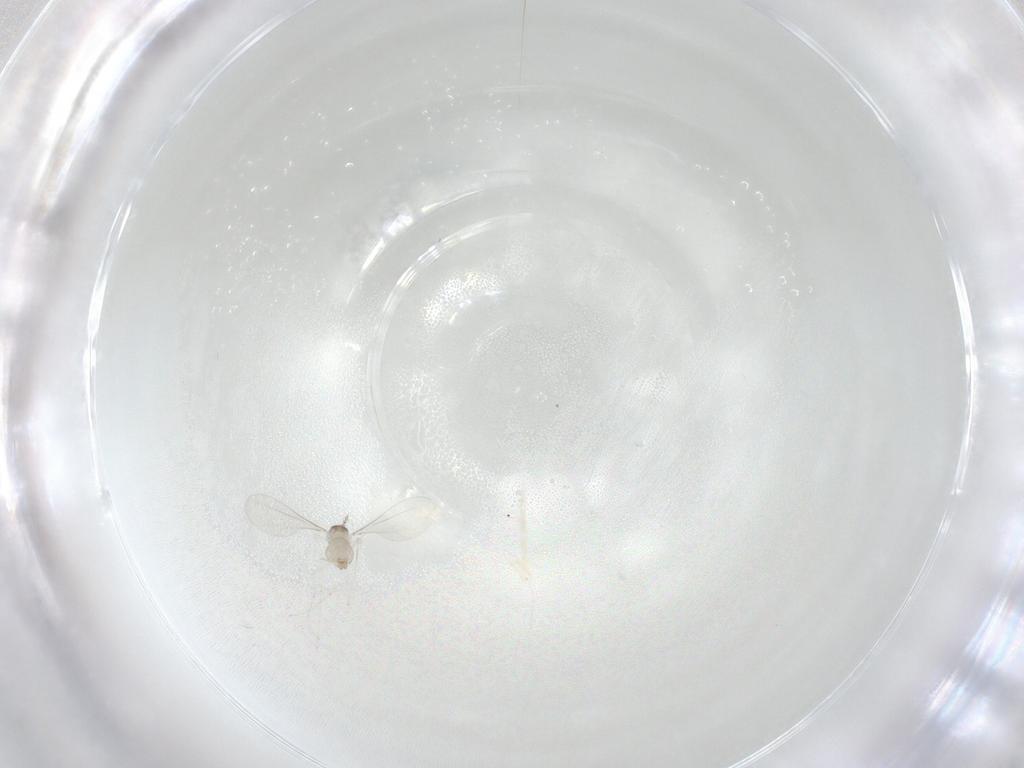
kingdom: Animalia
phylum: Arthropoda
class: Insecta
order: Diptera
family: Cecidomyiidae
